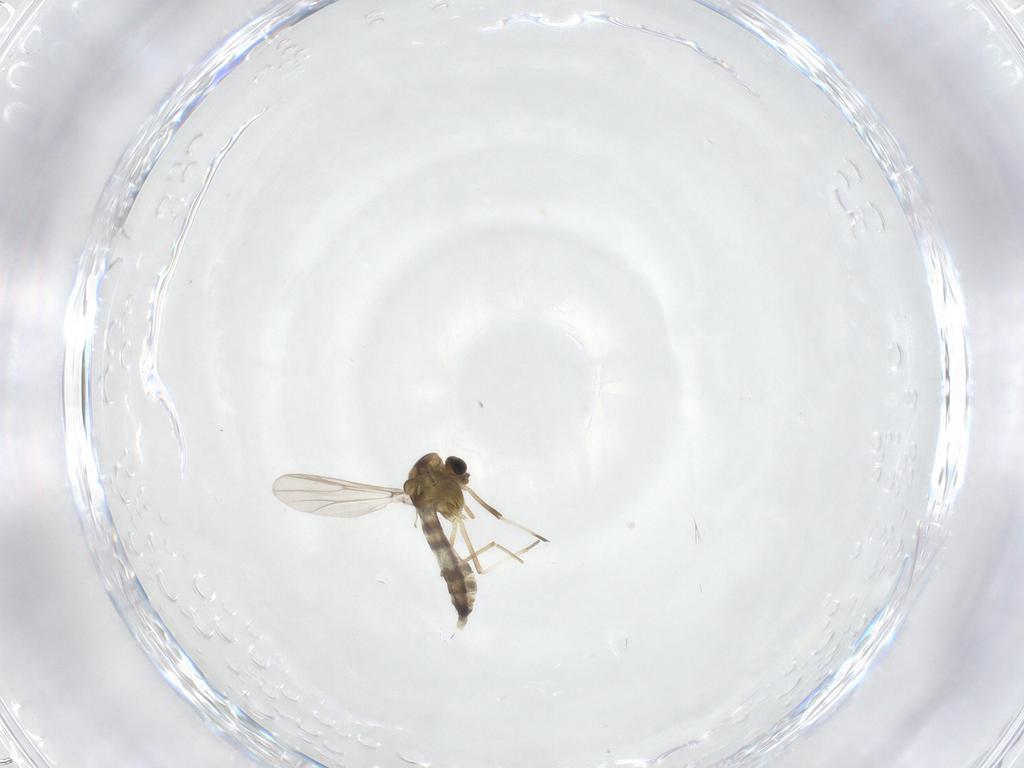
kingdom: Animalia
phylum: Arthropoda
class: Insecta
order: Diptera
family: Chironomidae
